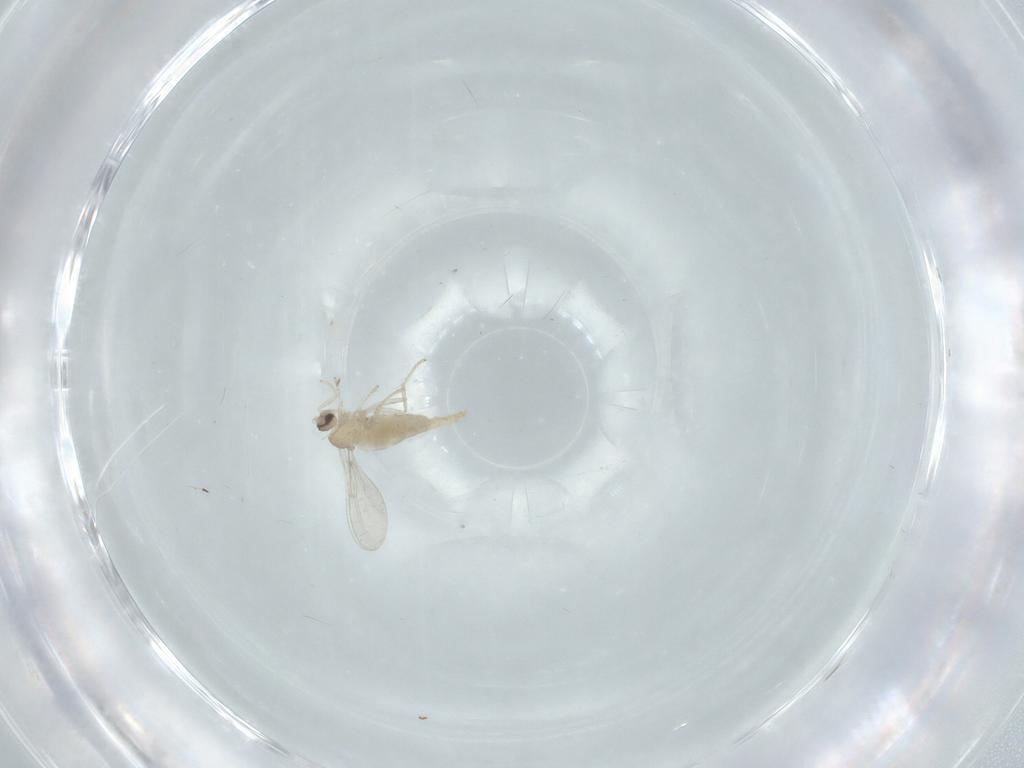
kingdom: Animalia
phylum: Arthropoda
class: Insecta
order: Diptera
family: Cecidomyiidae
